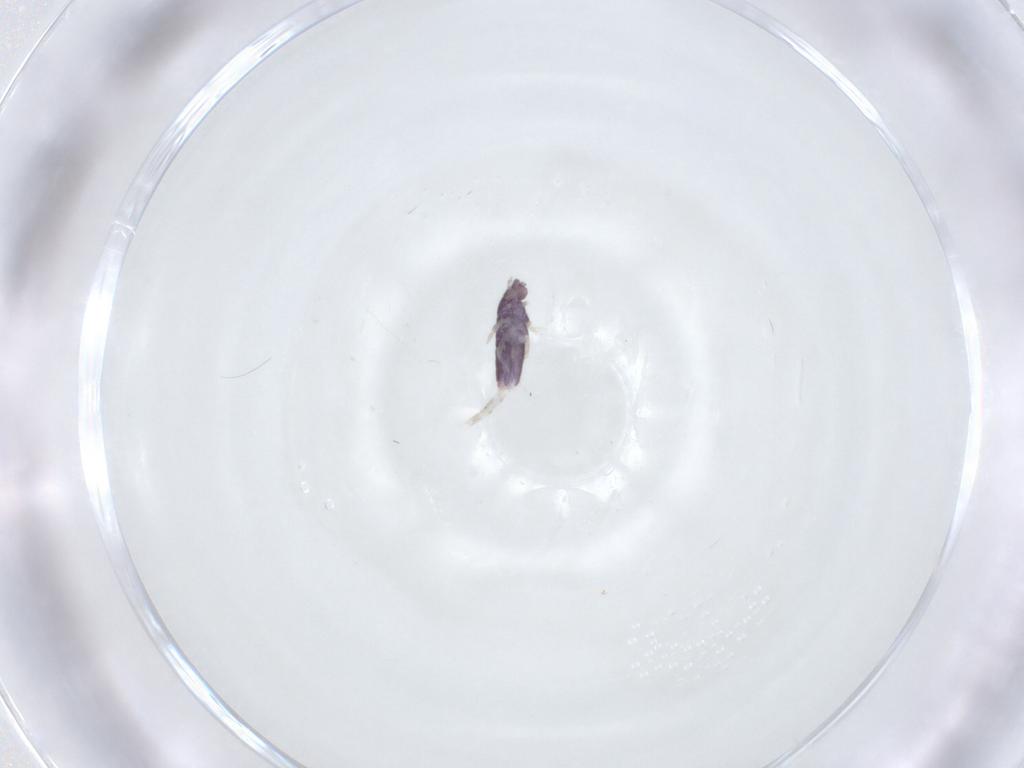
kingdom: Animalia
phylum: Arthropoda
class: Collembola
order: Entomobryomorpha
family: Entomobryidae
